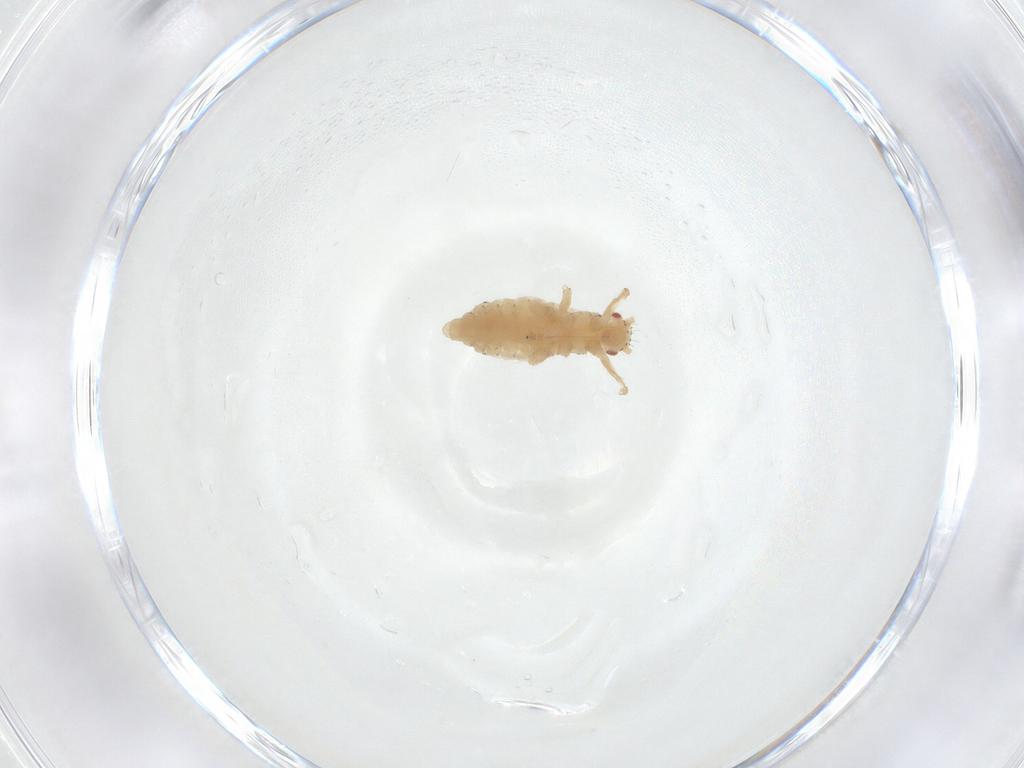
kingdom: Animalia
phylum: Arthropoda
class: Insecta
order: Hemiptera
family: Aphididae
